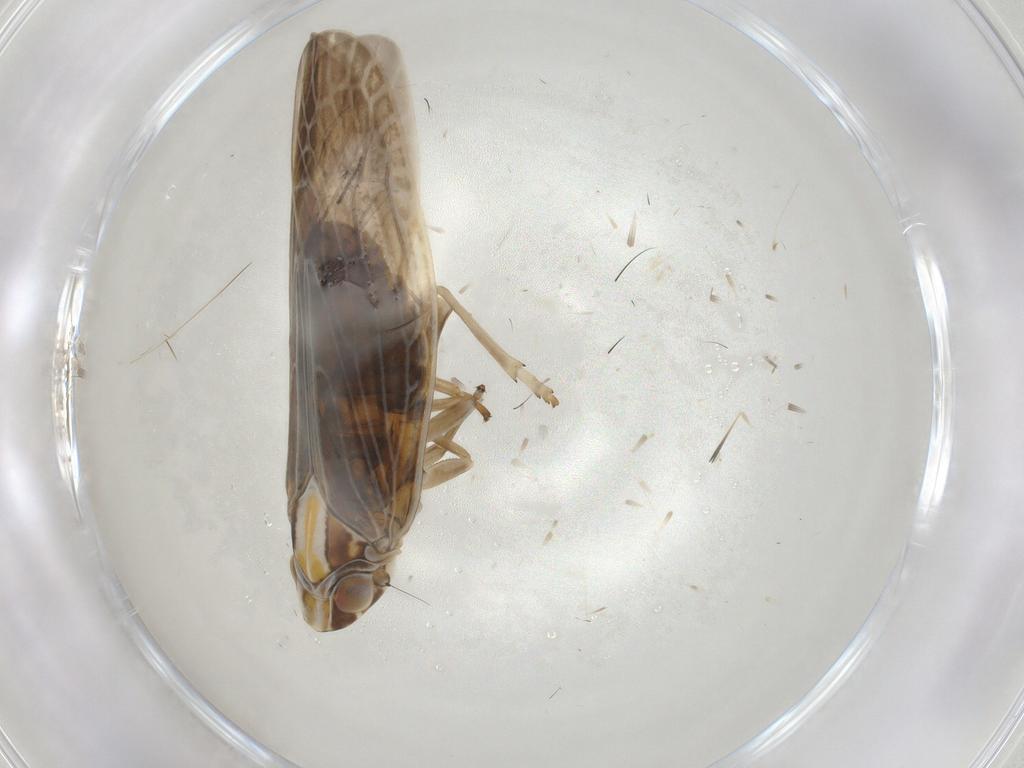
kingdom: Animalia
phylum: Arthropoda
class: Insecta
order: Hemiptera
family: Achilidae
